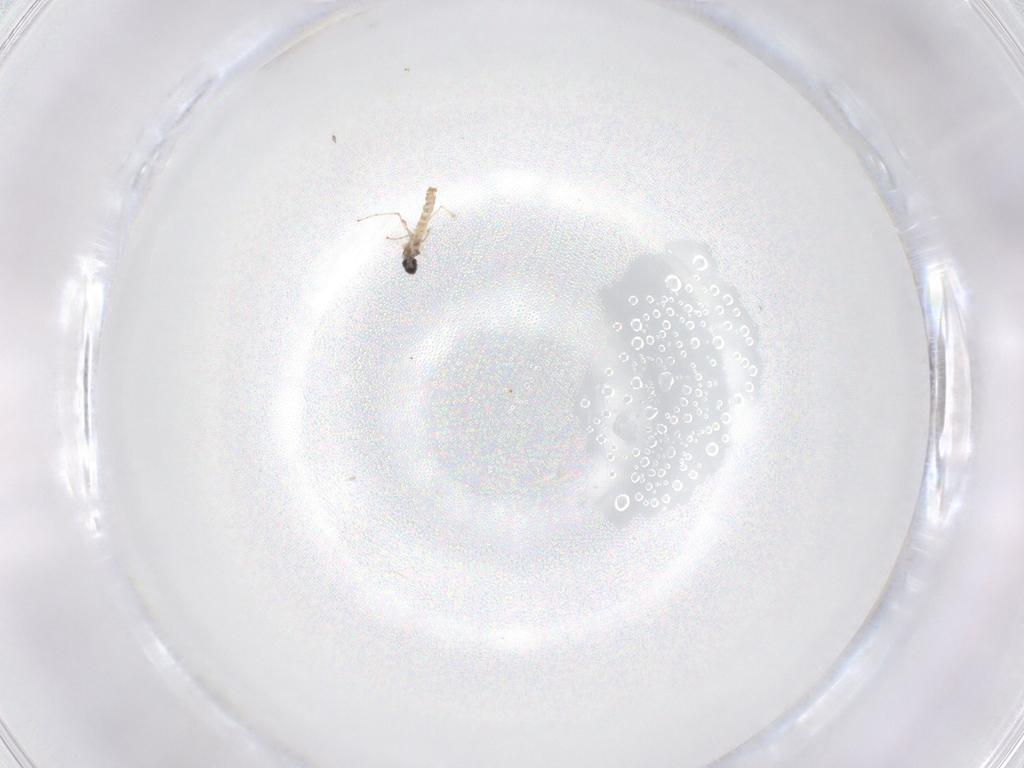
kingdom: Animalia
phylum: Arthropoda
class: Insecta
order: Diptera
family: Cecidomyiidae
